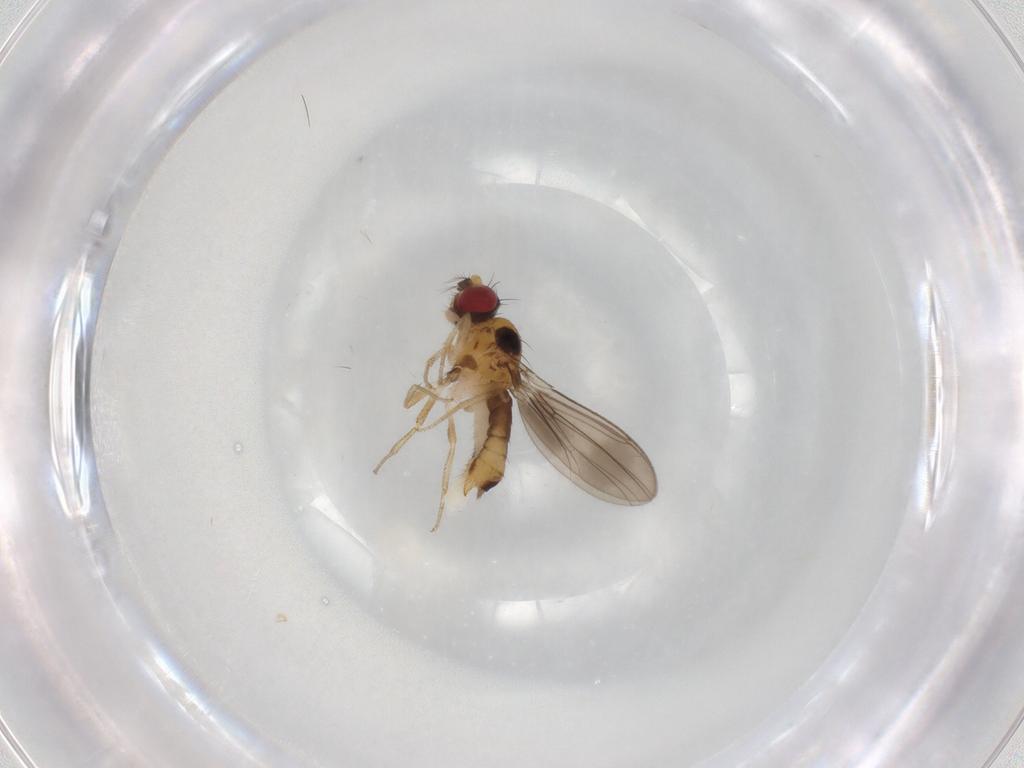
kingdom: Animalia
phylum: Arthropoda
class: Insecta
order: Diptera
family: Drosophilidae
